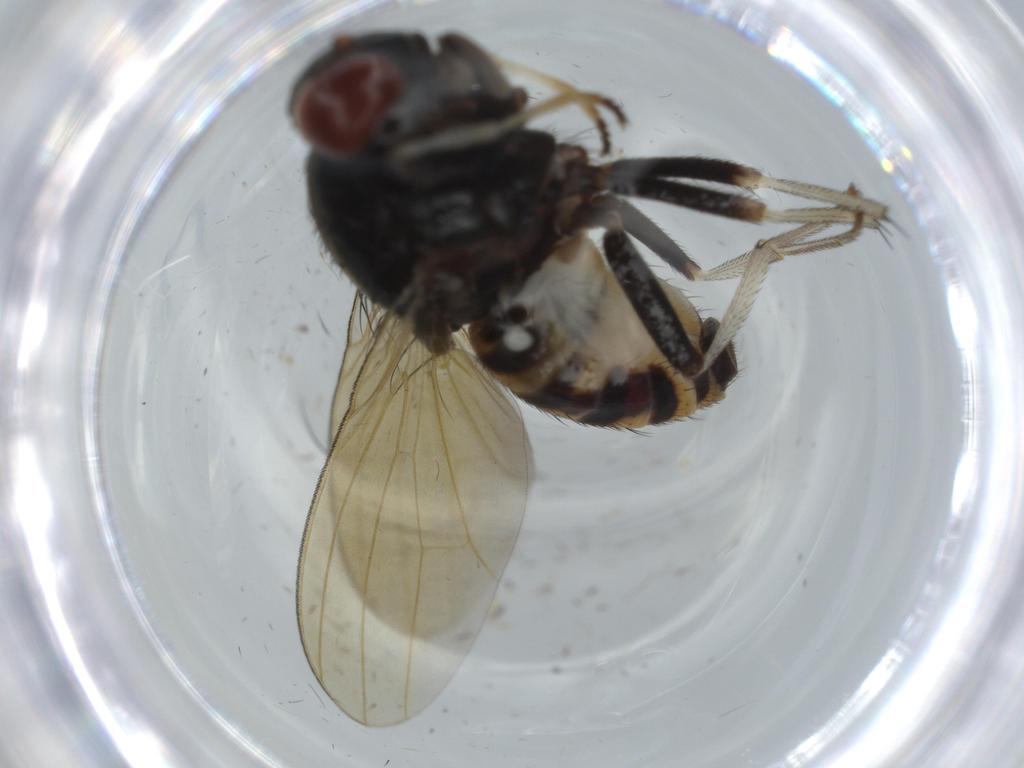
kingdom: Animalia
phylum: Arthropoda
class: Insecta
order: Diptera
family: Lauxaniidae
